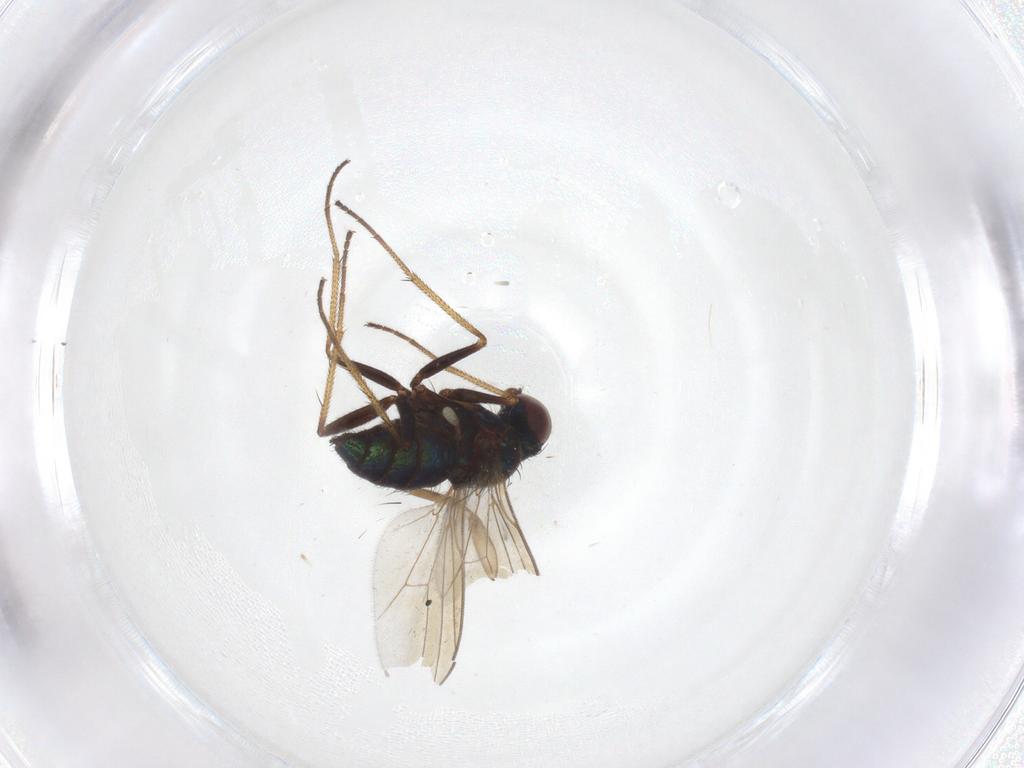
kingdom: Animalia
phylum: Arthropoda
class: Insecta
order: Diptera
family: Dolichopodidae
